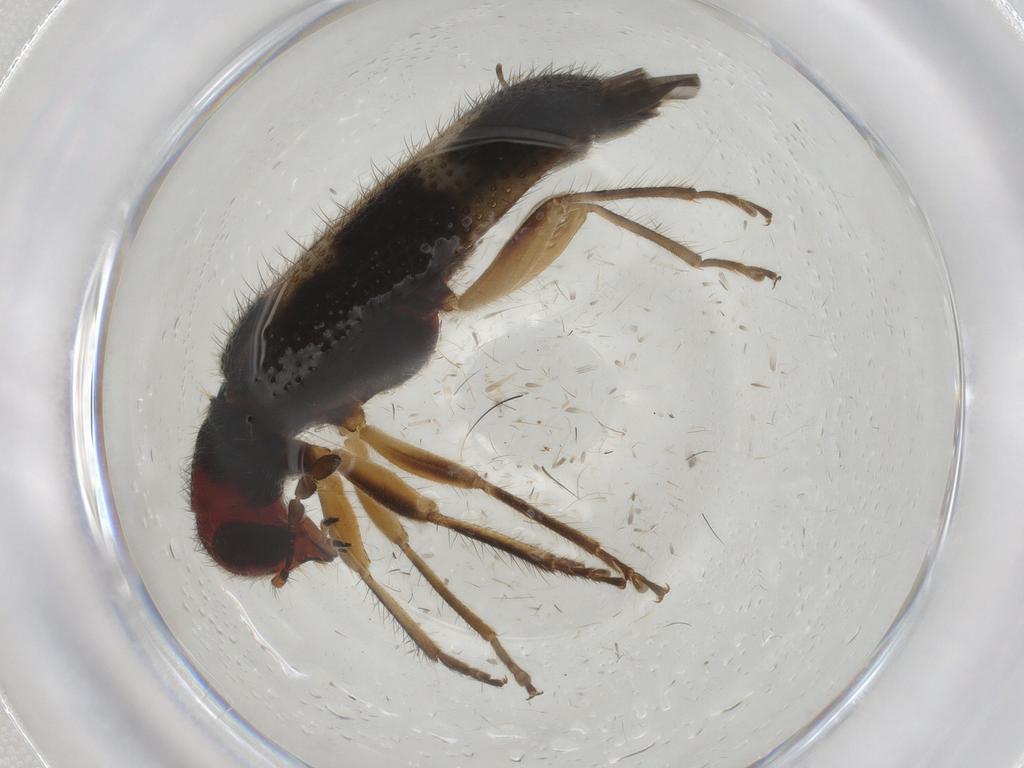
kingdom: Animalia
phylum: Arthropoda
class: Insecta
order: Coleoptera
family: Cleridae
